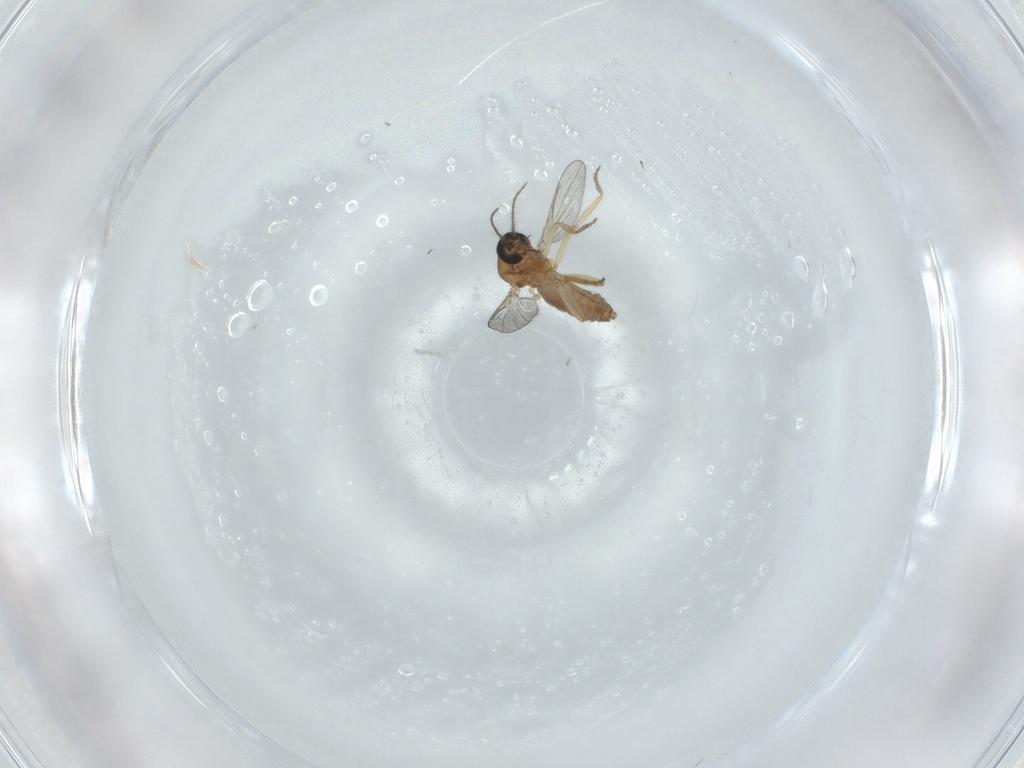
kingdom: Animalia
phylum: Arthropoda
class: Insecta
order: Diptera
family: Ceratopogonidae
